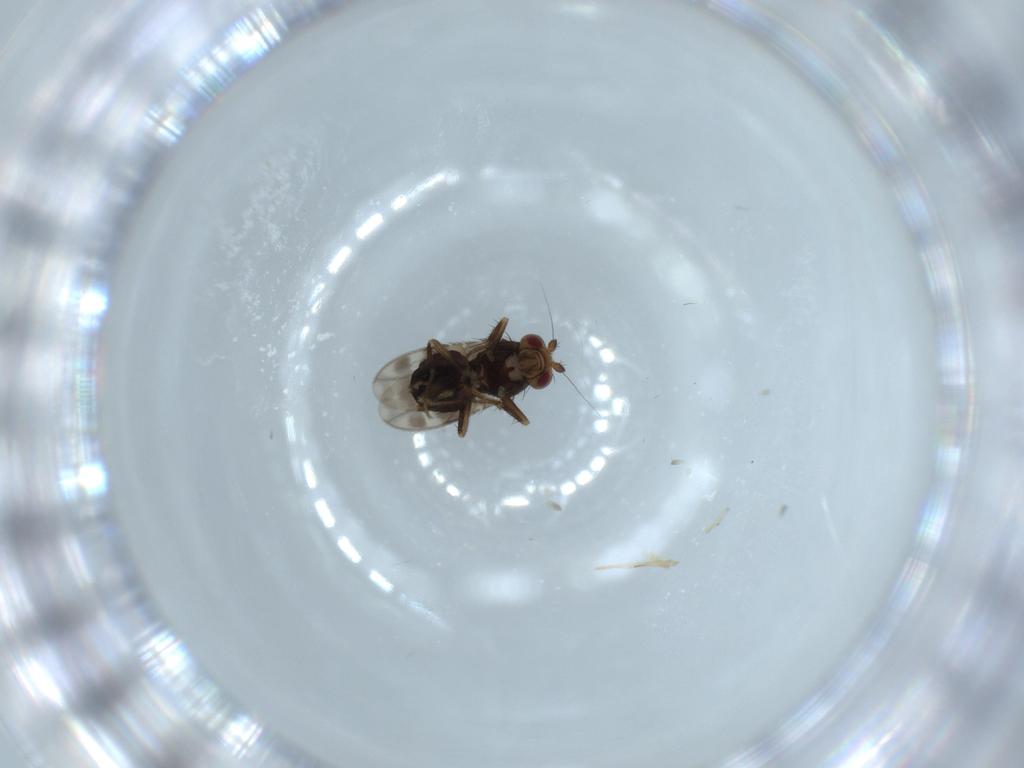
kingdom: Animalia
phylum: Arthropoda
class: Insecta
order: Diptera
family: Sphaeroceridae
